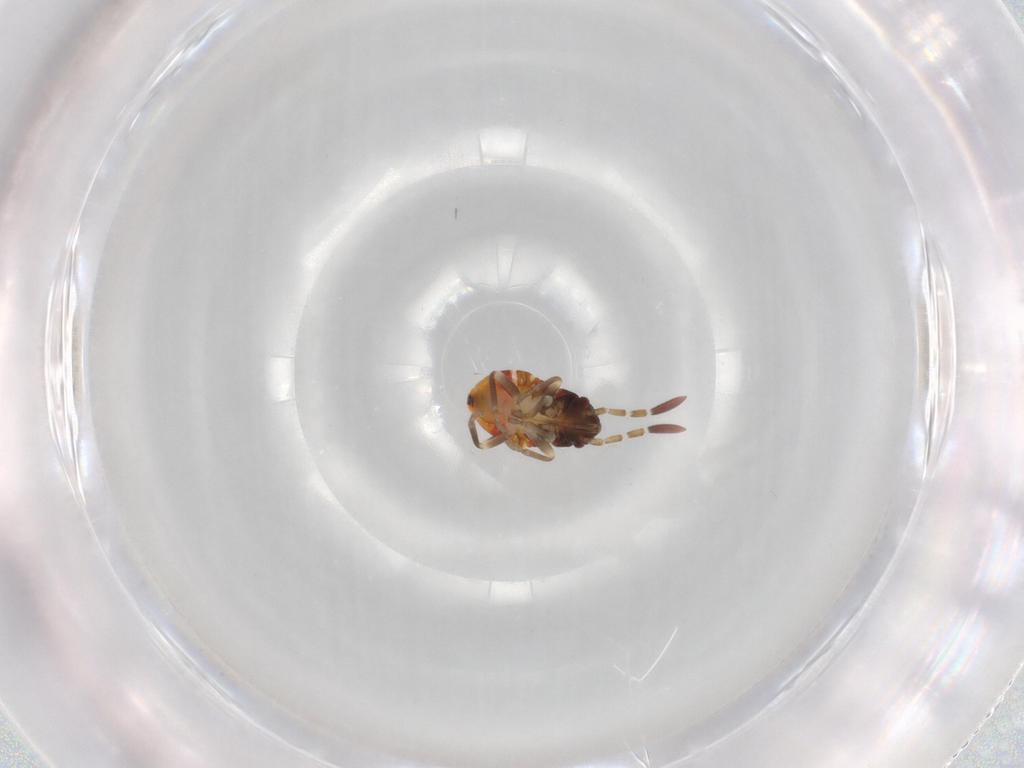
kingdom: Animalia
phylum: Arthropoda
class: Insecta
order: Hemiptera
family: Rhyparochromidae
